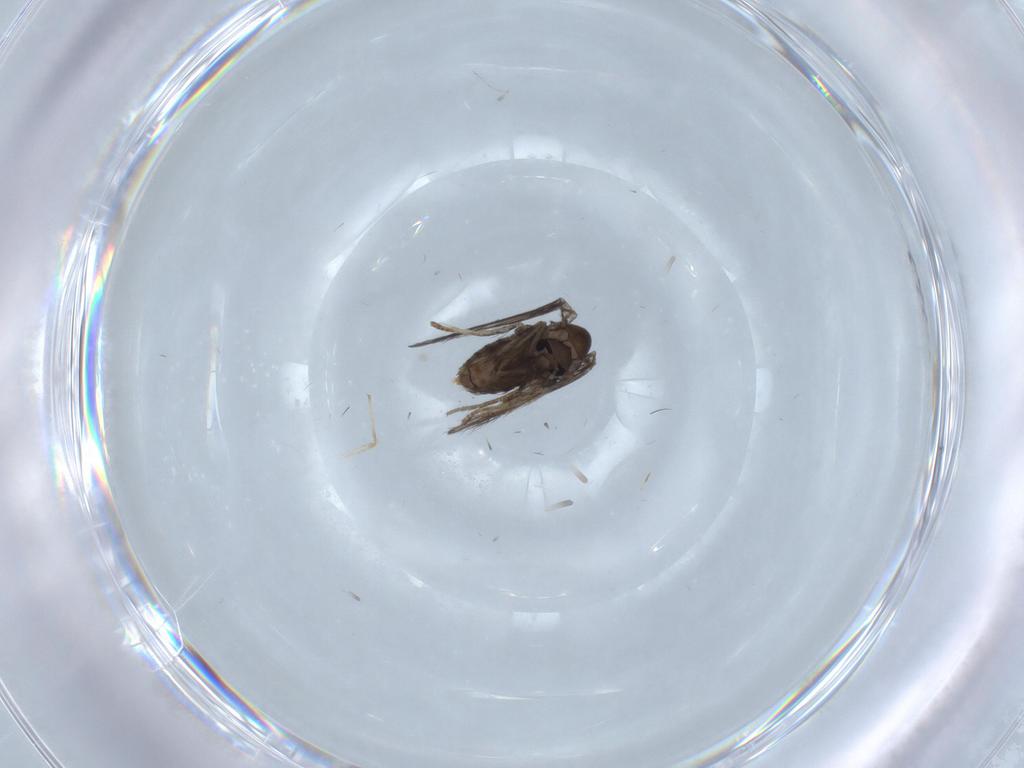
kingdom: Animalia
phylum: Arthropoda
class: Insecta
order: Diptera
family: Psychodidae
